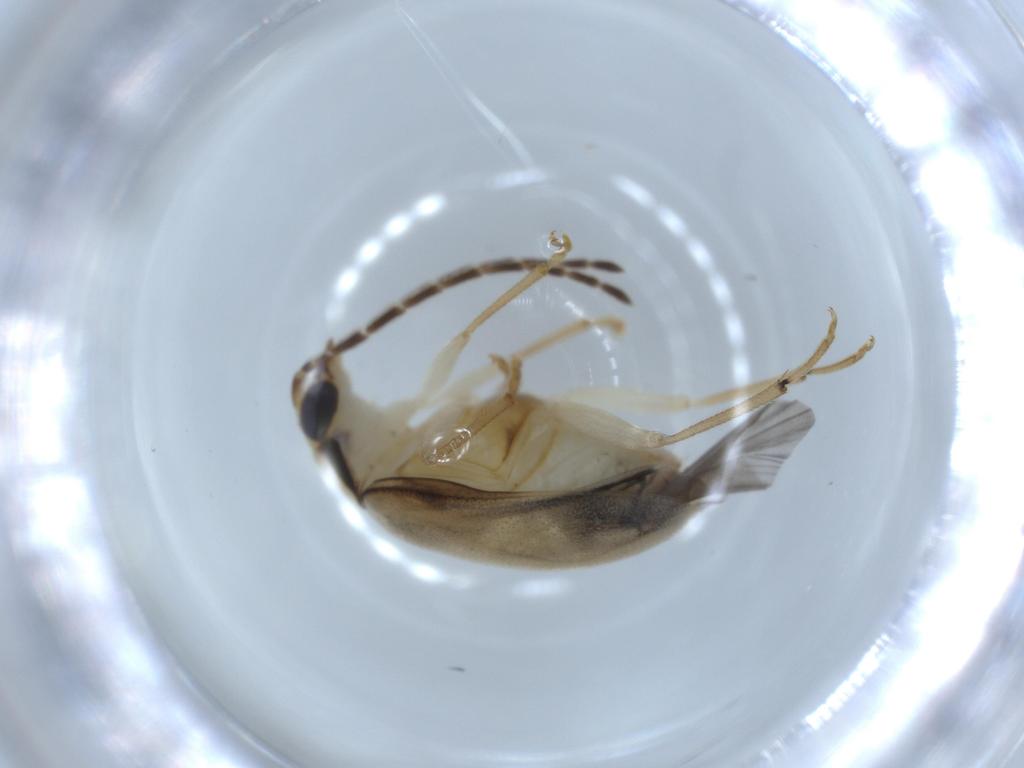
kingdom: Animalia
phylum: Arthropoda
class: Insecta
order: Coleoptera
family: Chrysomelidae
